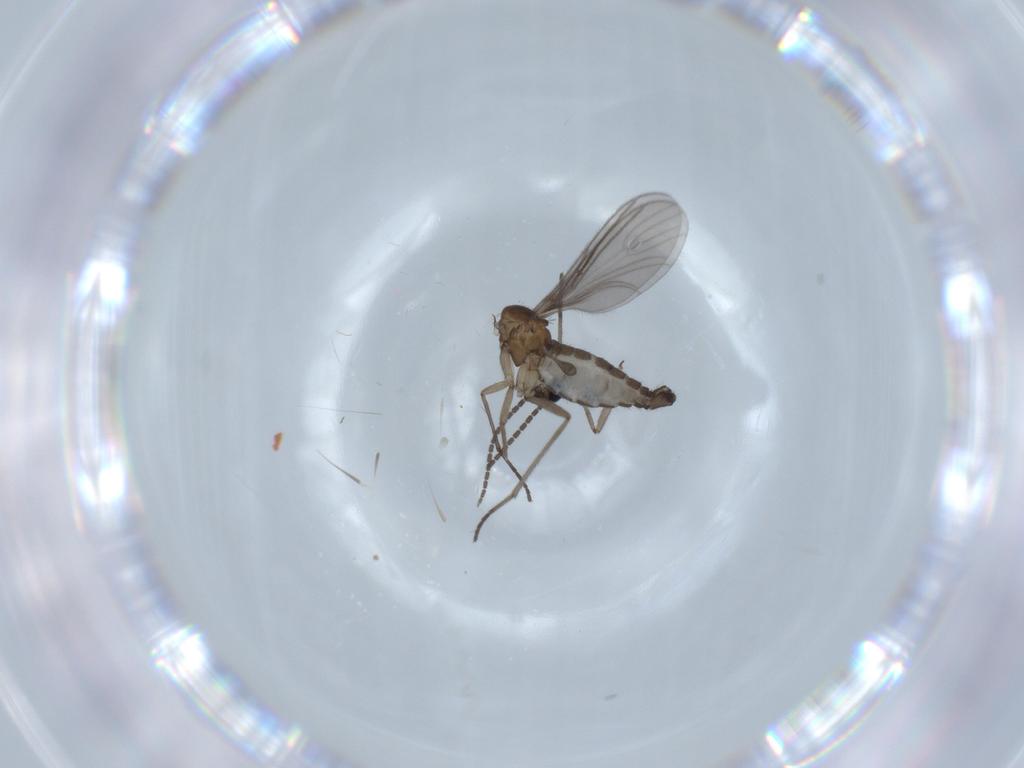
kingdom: Animalia
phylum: Arthropoda
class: Insecta
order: Diptera
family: Sciaridae
